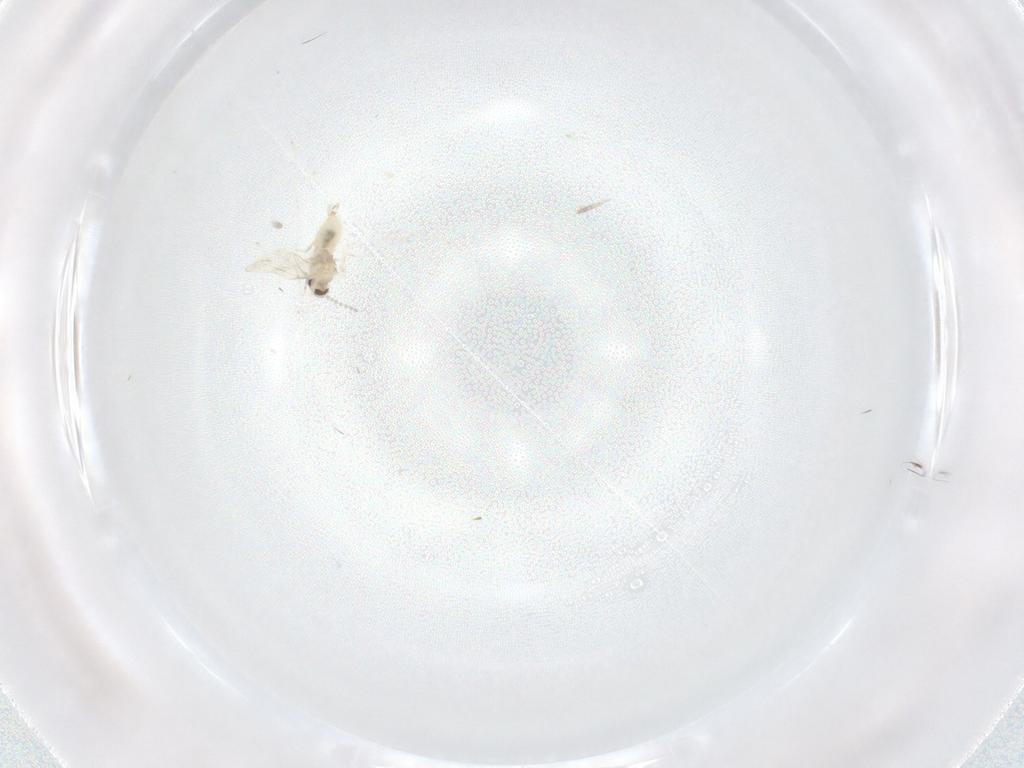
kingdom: Animalia
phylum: Arthropoda
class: Insecta
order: Diptera
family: Cecidomyiidae
